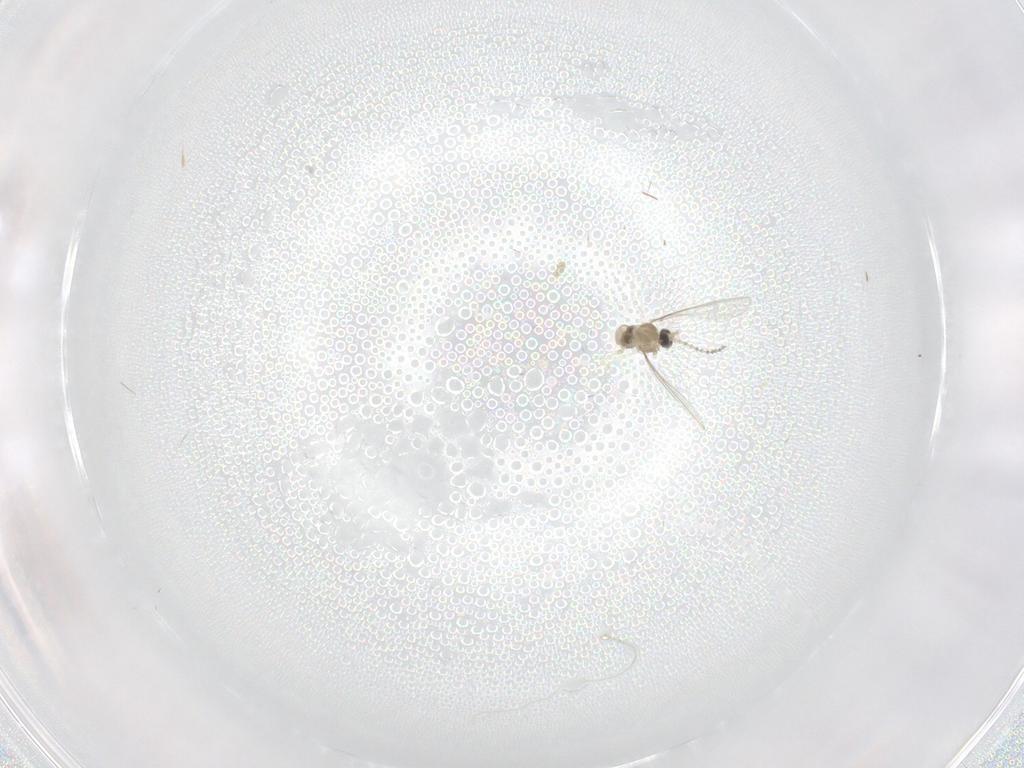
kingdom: Animalia
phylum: Arthropoda
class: Insecta
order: Diptera
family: Cecidomyiidae
